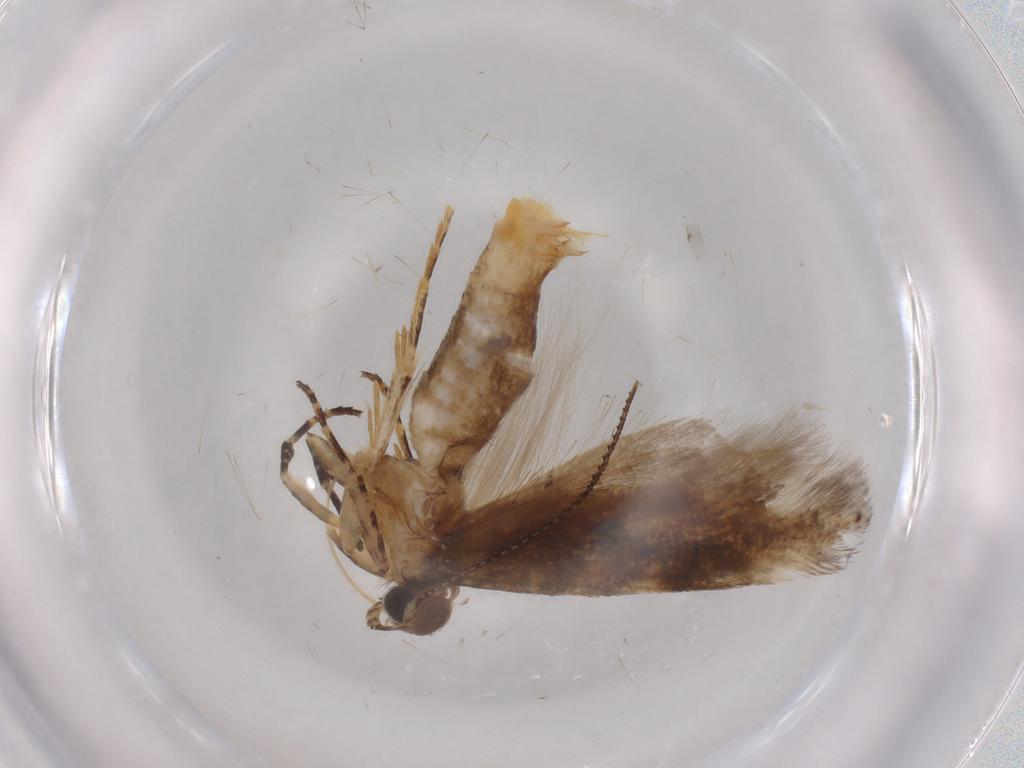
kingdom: Animalia
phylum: Arthropoda
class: Insecta
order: Lepidoptera
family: Gelechiidae
